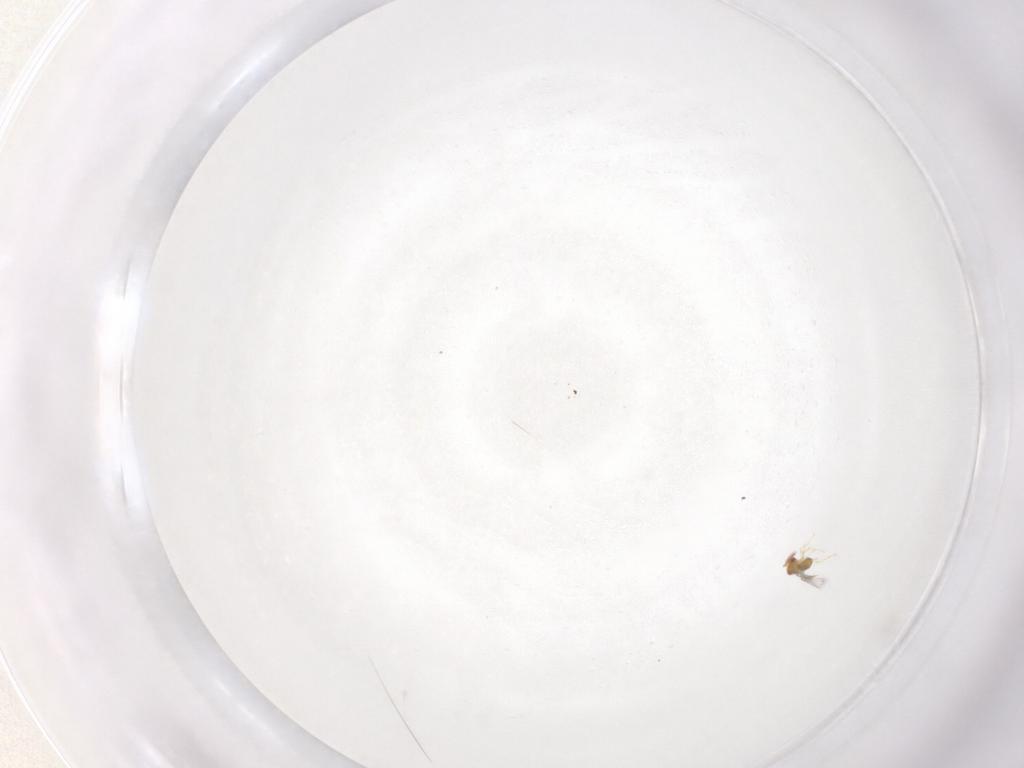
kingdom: Animalia
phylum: Arthropoda
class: Insecta
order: Hymenoptera
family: Trichogrammatidae
